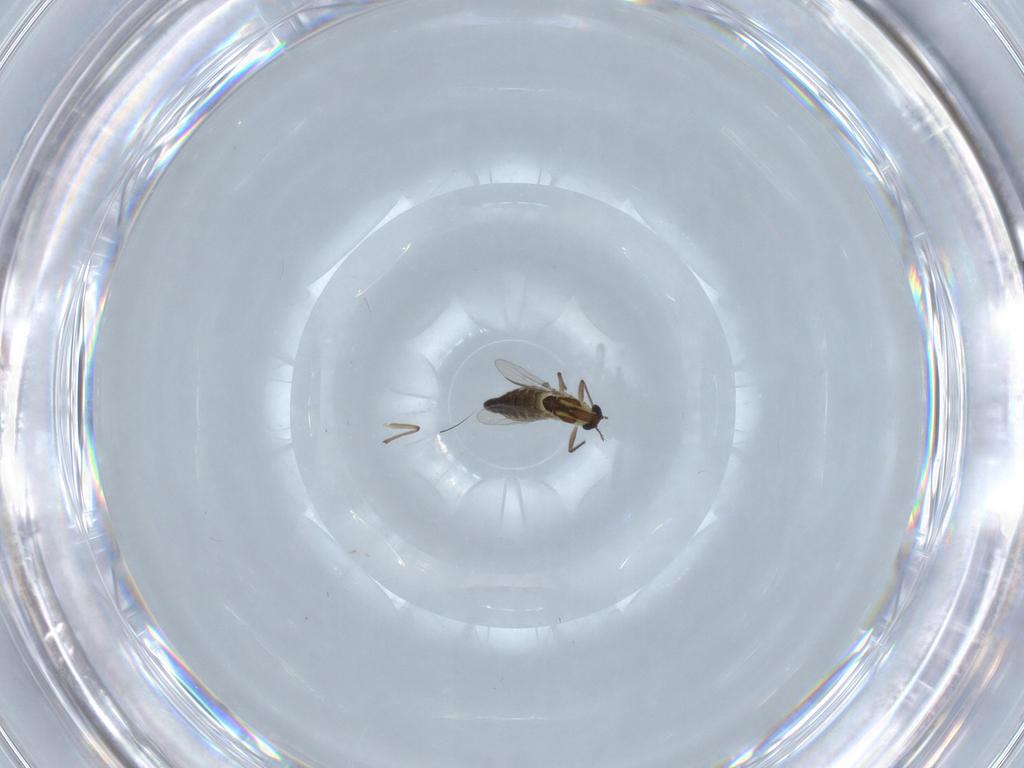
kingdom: Animalia
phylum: Arthropoda
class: Insecta
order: Diptera
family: Chironomidae
